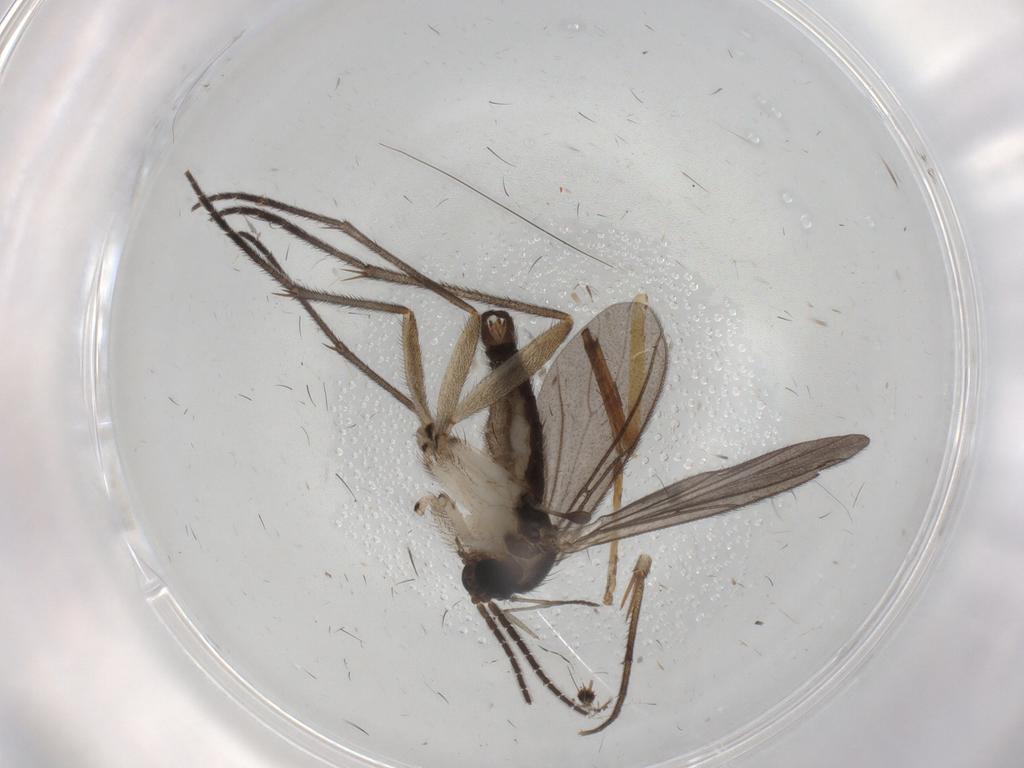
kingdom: Animalia
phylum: Arthropoda
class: Insecta
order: Diptera
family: Sciaridae
